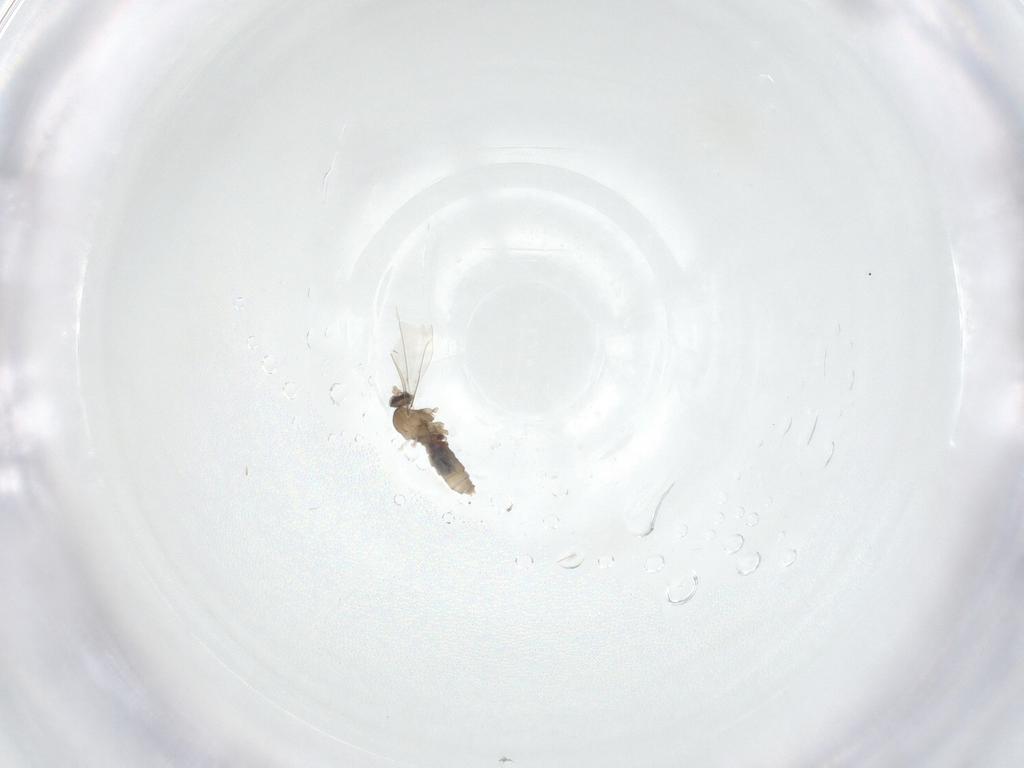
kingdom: Animalia
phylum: Arthropoda
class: Insecta
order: Diptera
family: Cecidomyiidae
